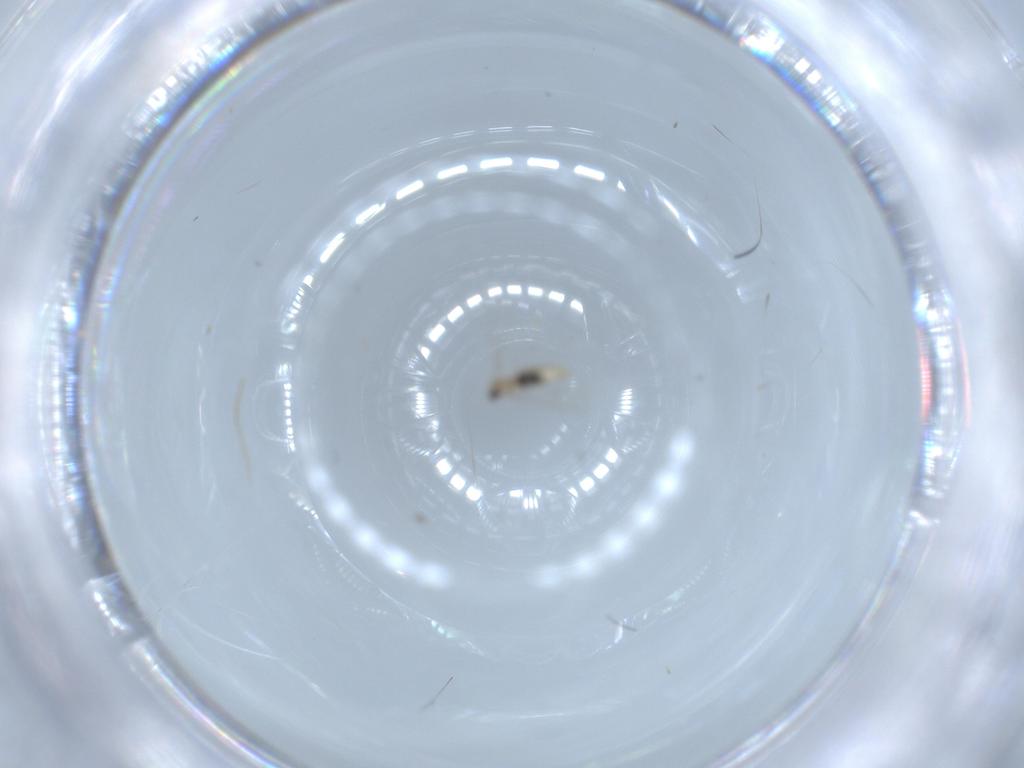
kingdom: Animalia
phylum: Arthropoda
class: Insecta
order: Diptera
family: Cecidomyiidae
